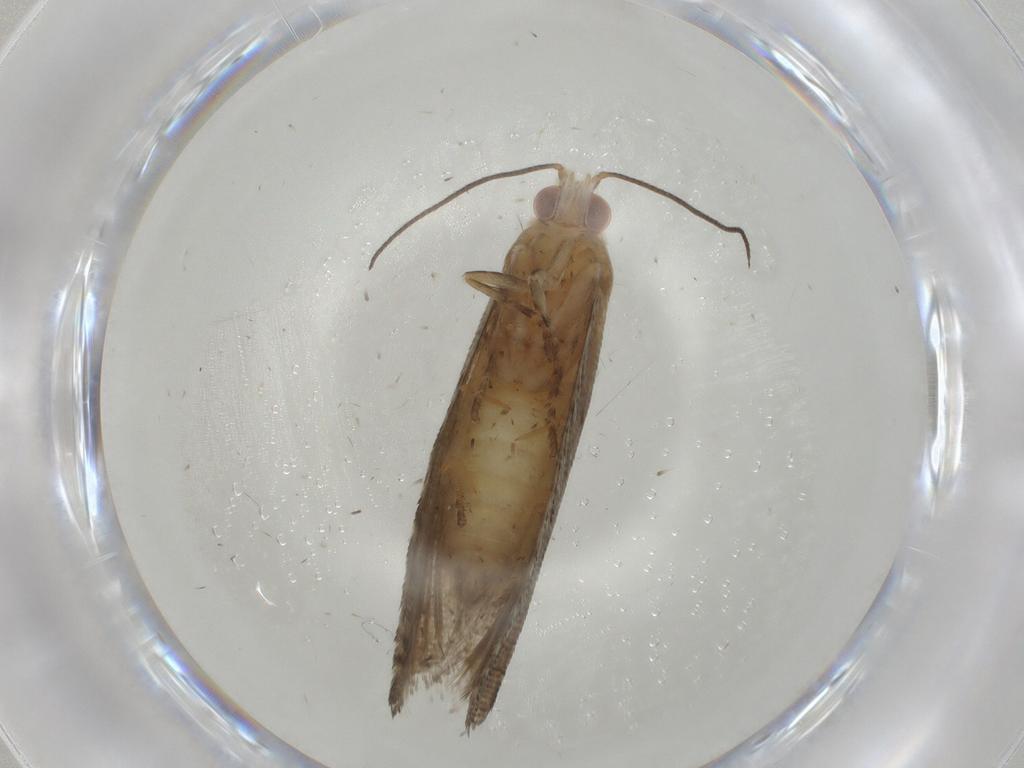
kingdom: Animalia
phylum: Arthropoda
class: Insecta
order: Lepidoptera
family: Tortricidae
